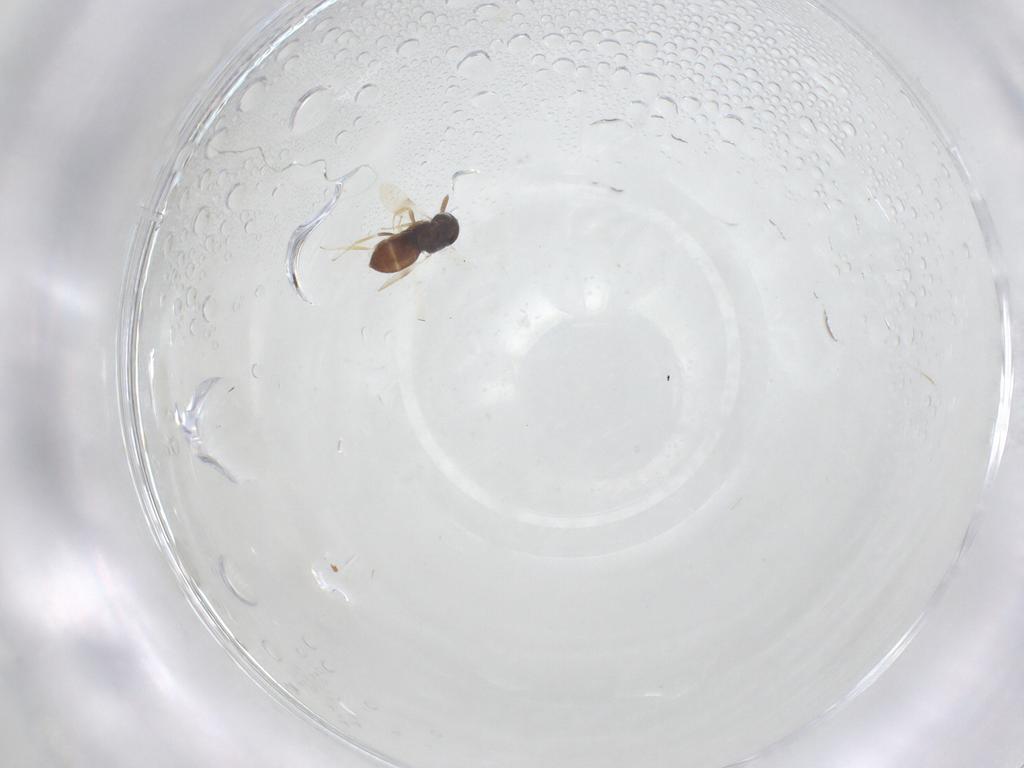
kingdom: Animalia
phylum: Arthropoda
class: Insecta
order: Hymenoptera
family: Scelionidae
